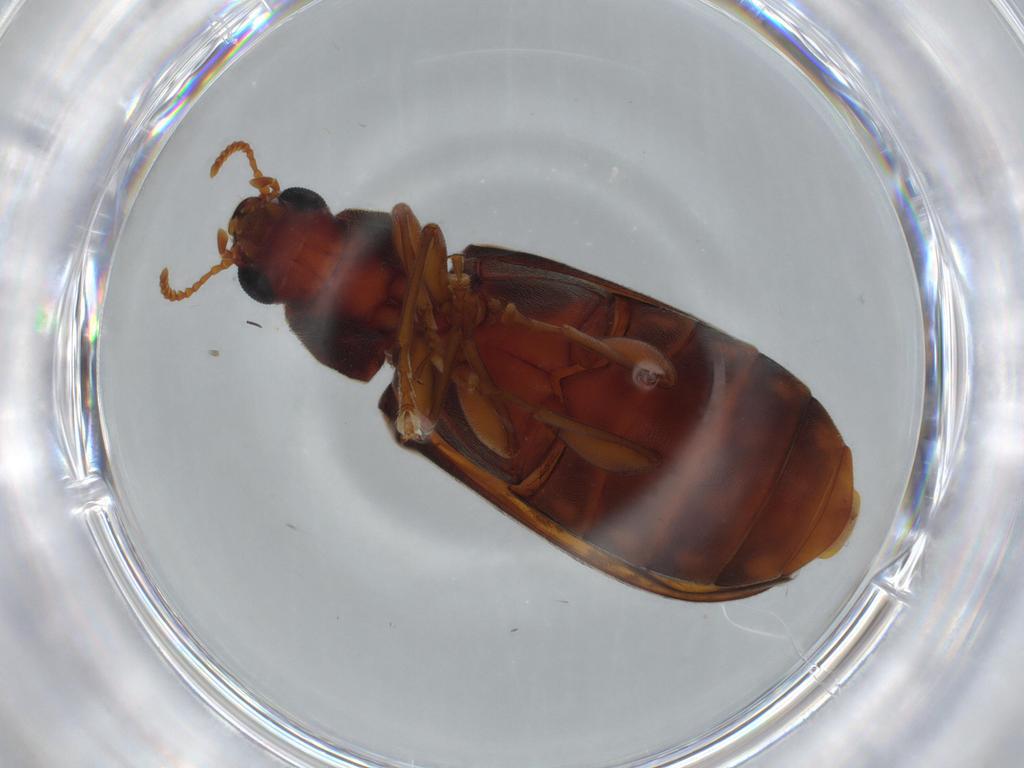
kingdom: Animalia
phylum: Arthropoda
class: Insecta
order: Coleoptera
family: Mycteridae
